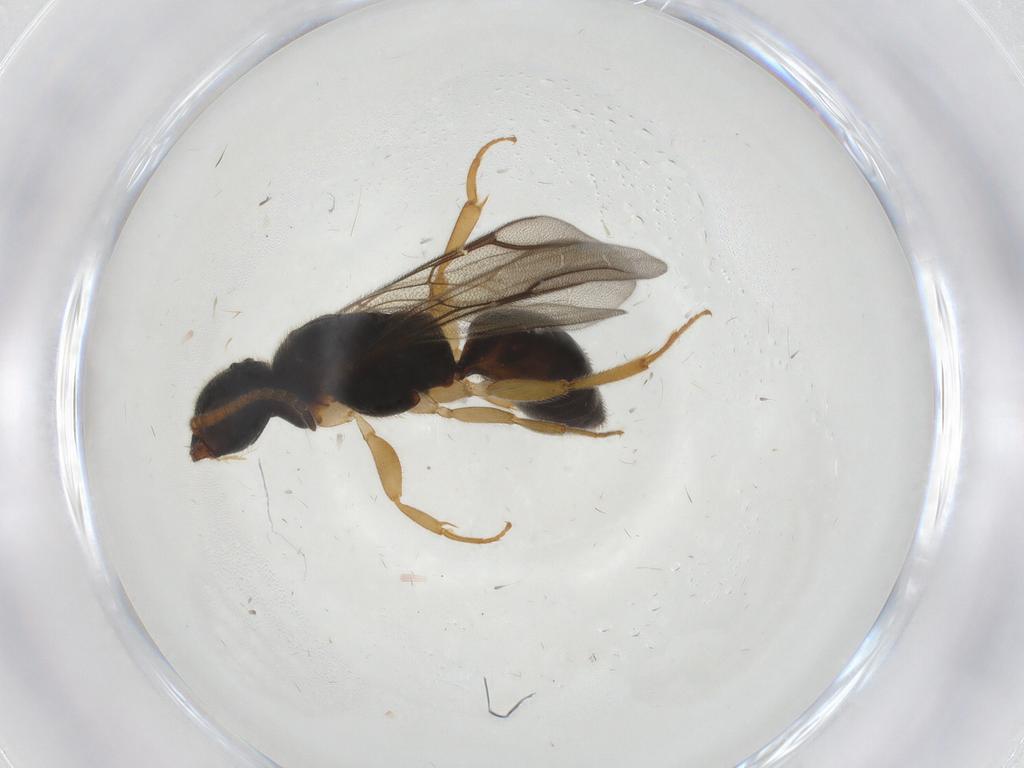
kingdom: Animalia
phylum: Arthropoda
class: Insecta
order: Hymenoptera
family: Bethylidae
